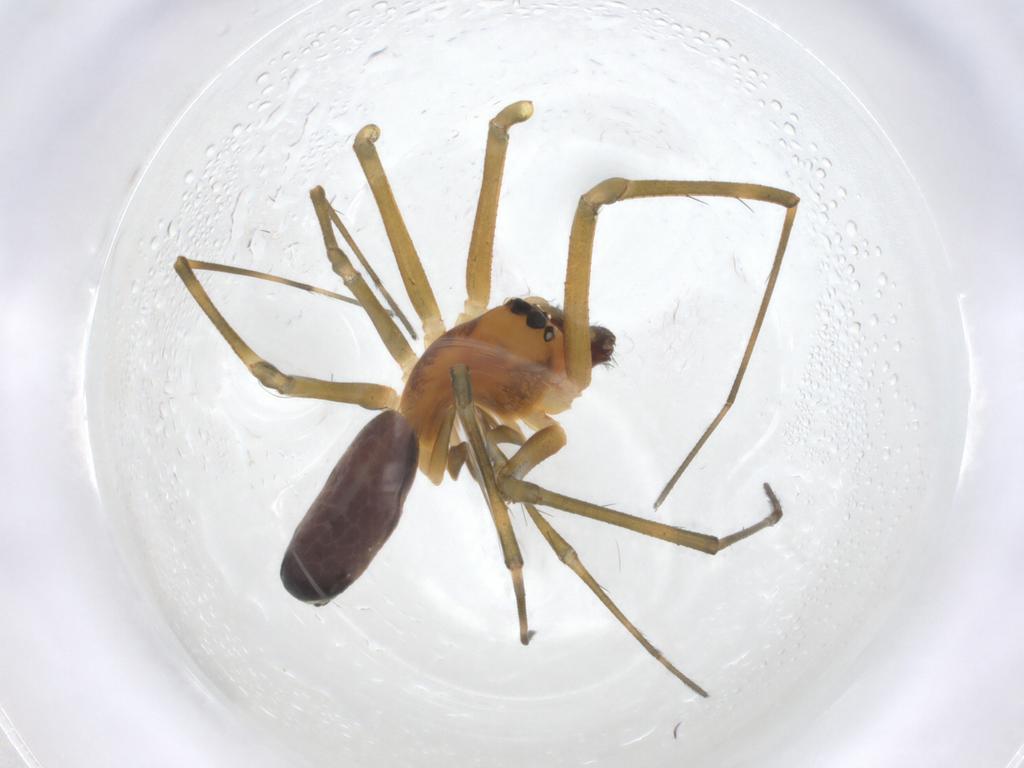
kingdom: Animalia
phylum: Arthropoda
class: Arachnida
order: Araneae
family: Linyphiidae
